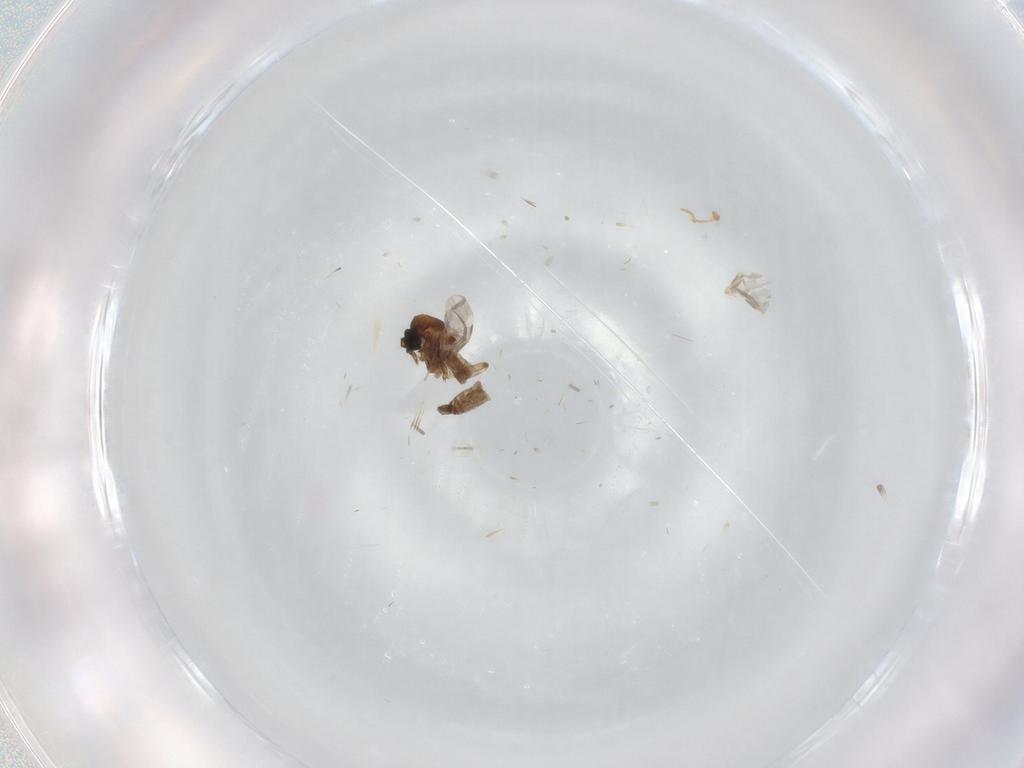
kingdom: Animalia
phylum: Arthropoda
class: Insecta
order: Diptera
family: Ceratopogonidae
